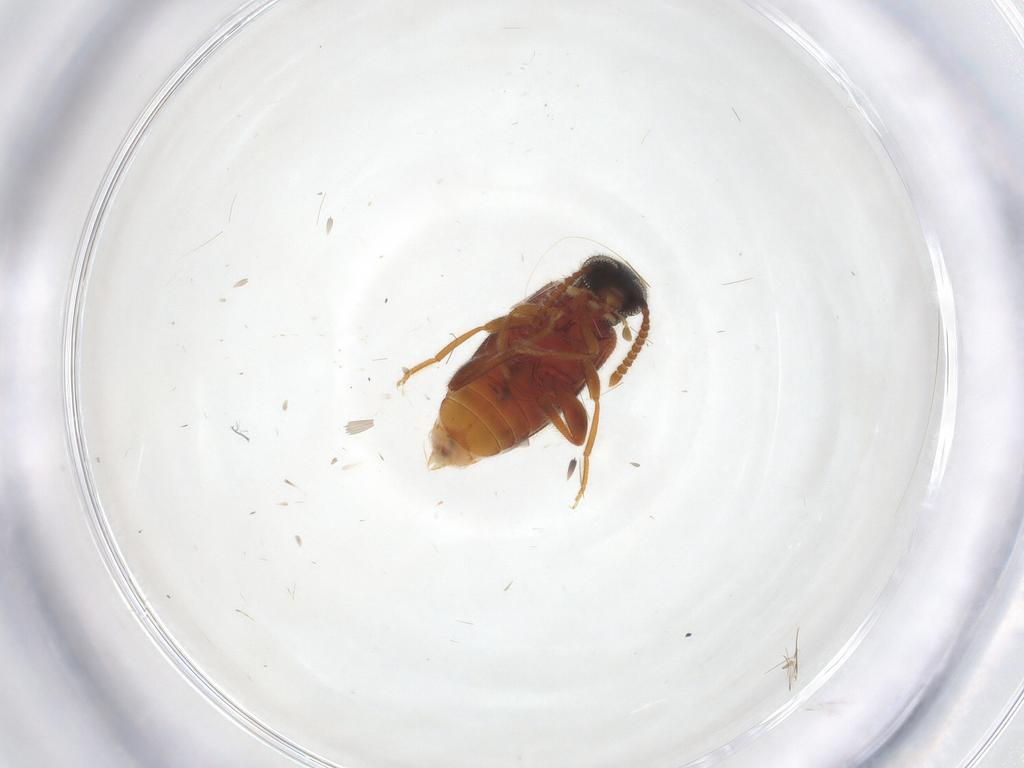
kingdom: Animalia
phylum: Arthropoda
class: Insecta
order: Coleoptera
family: Aderidae
